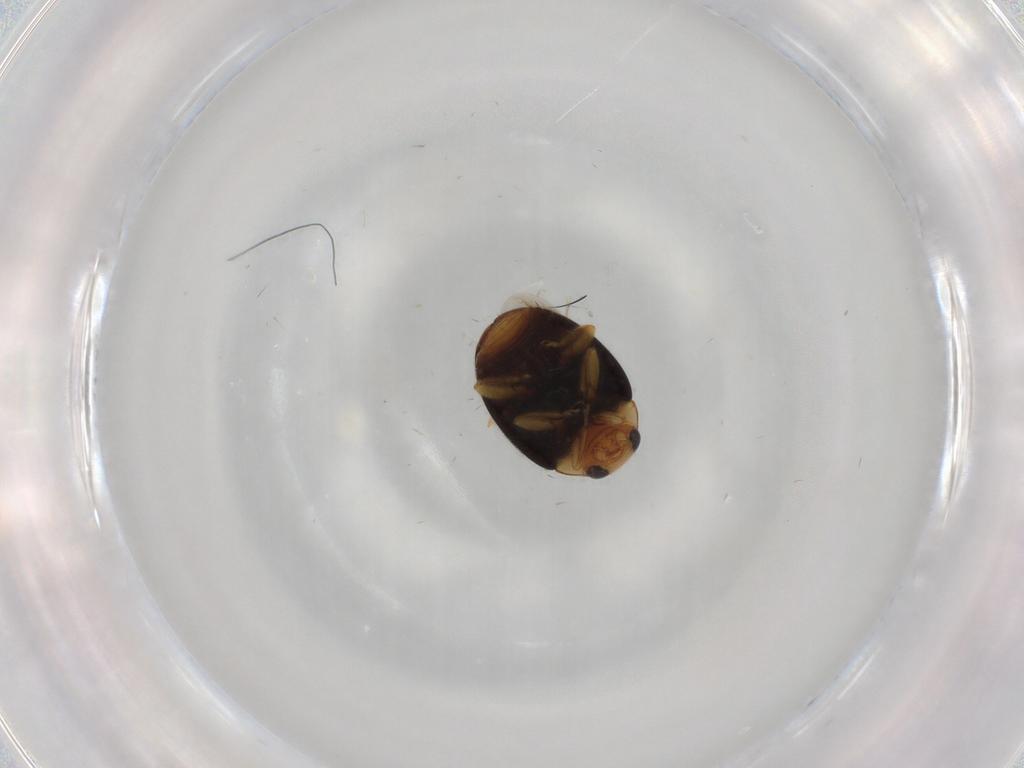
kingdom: Animalia
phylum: Arthropoda
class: Insecta
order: Coleoptera
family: Coccinellidae
